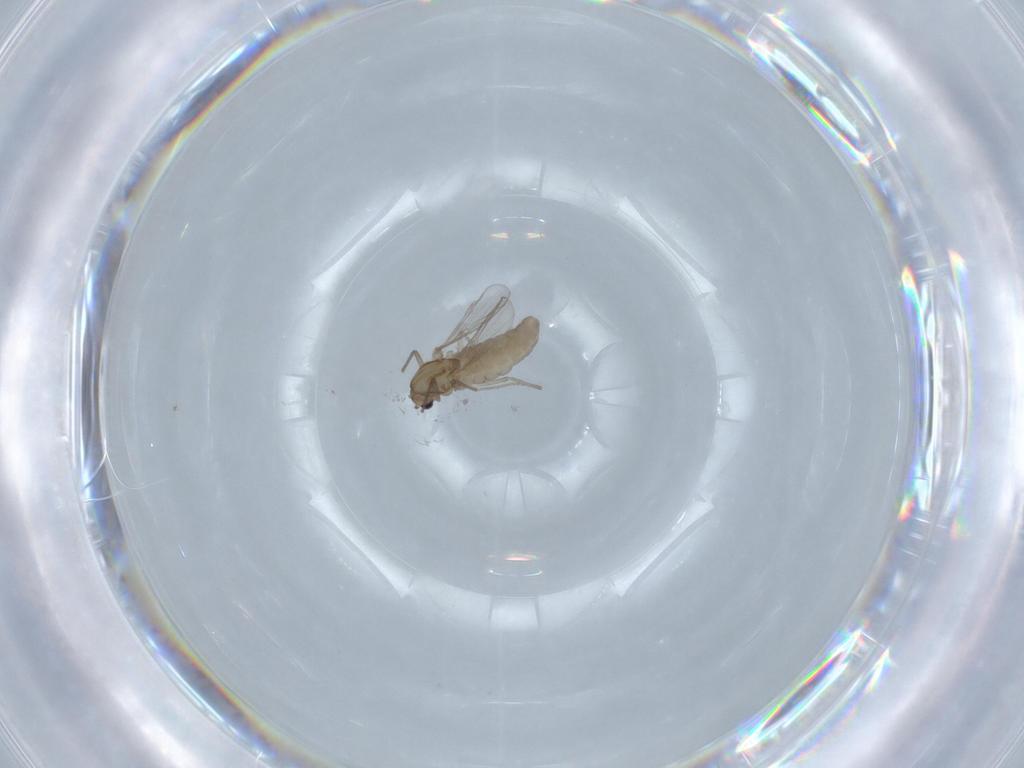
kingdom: Animalia
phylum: Arthropoda
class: Insecta
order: Diptera
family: Chironomidae
